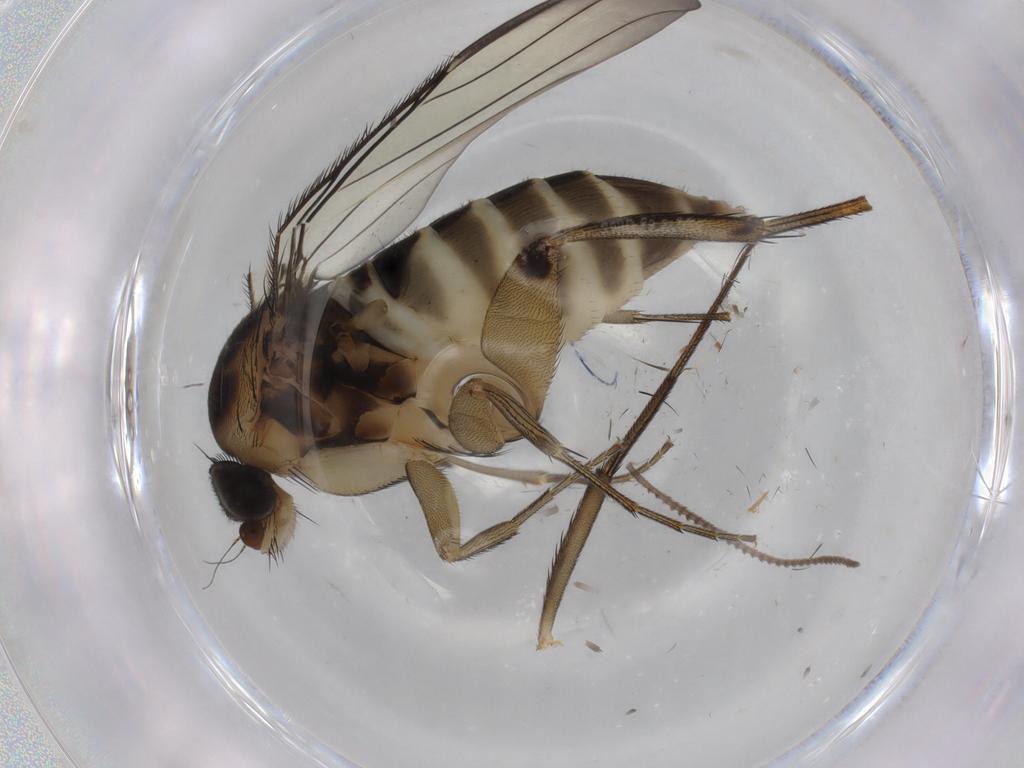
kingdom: Animalia
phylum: Arthropoda
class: Insecta
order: Diptera
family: Phoridae
